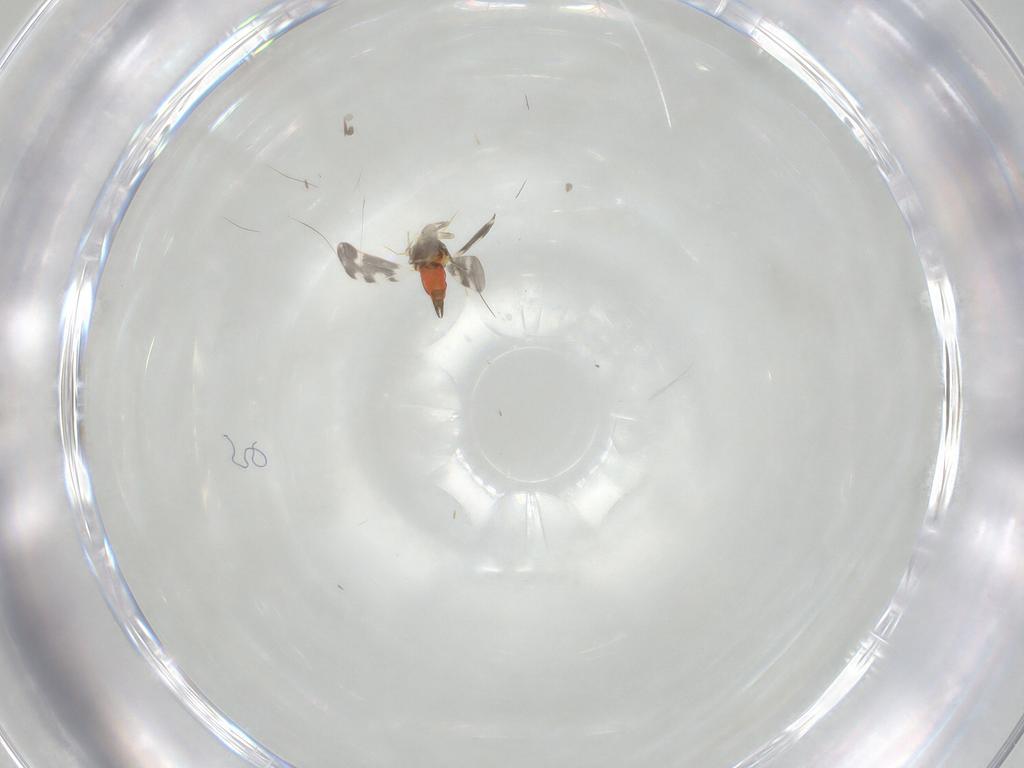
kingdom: Animalia
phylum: Arthropoda
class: Insecta
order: Hemiptera
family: Aleyrodidae
